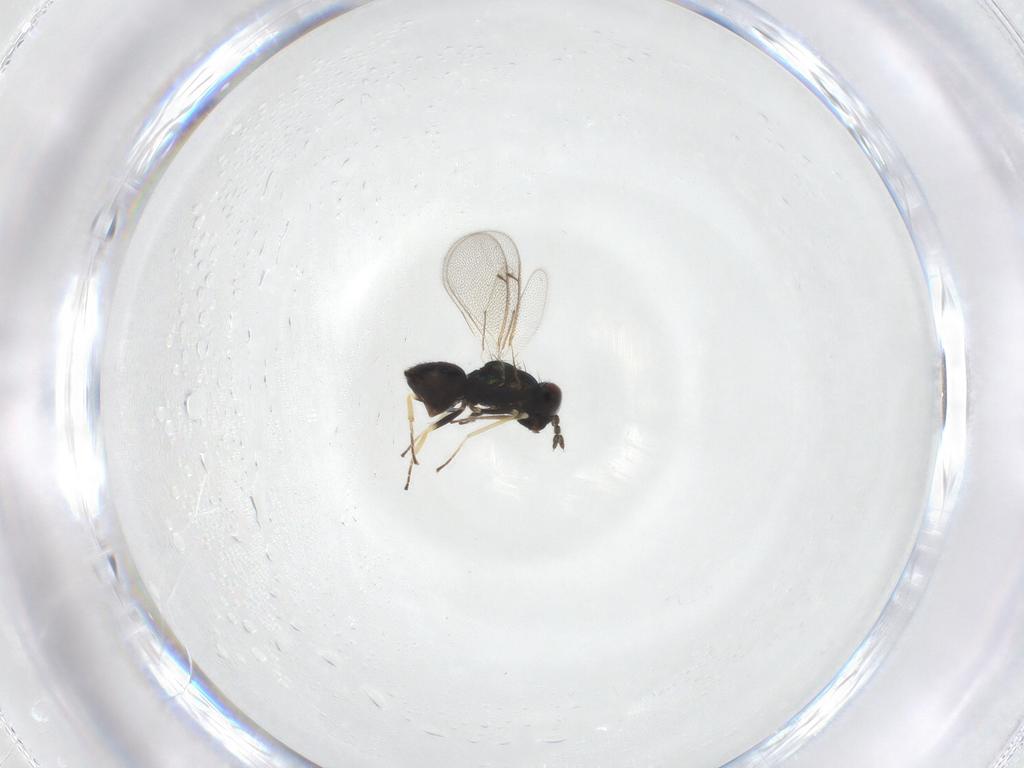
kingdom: Animalia
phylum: Arthropoda
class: Insecta
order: Hymenoptera
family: Eulophidae
